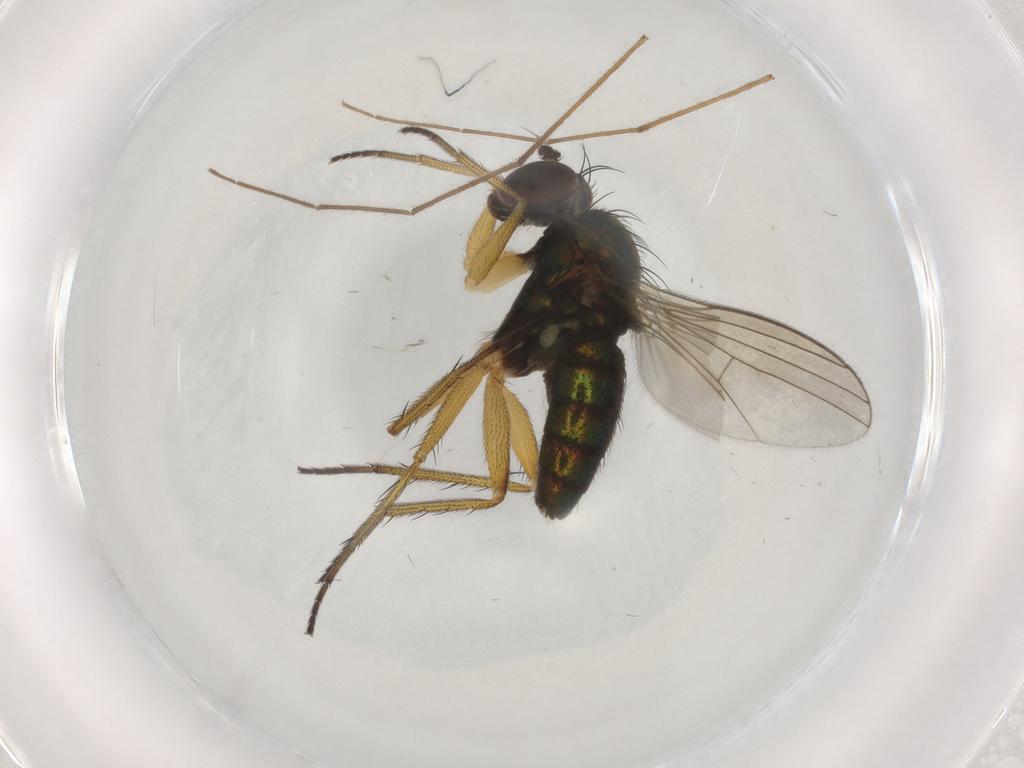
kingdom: Animalia
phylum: Arthropoda
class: Insecta
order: Diptera
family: Dolichopodidae
